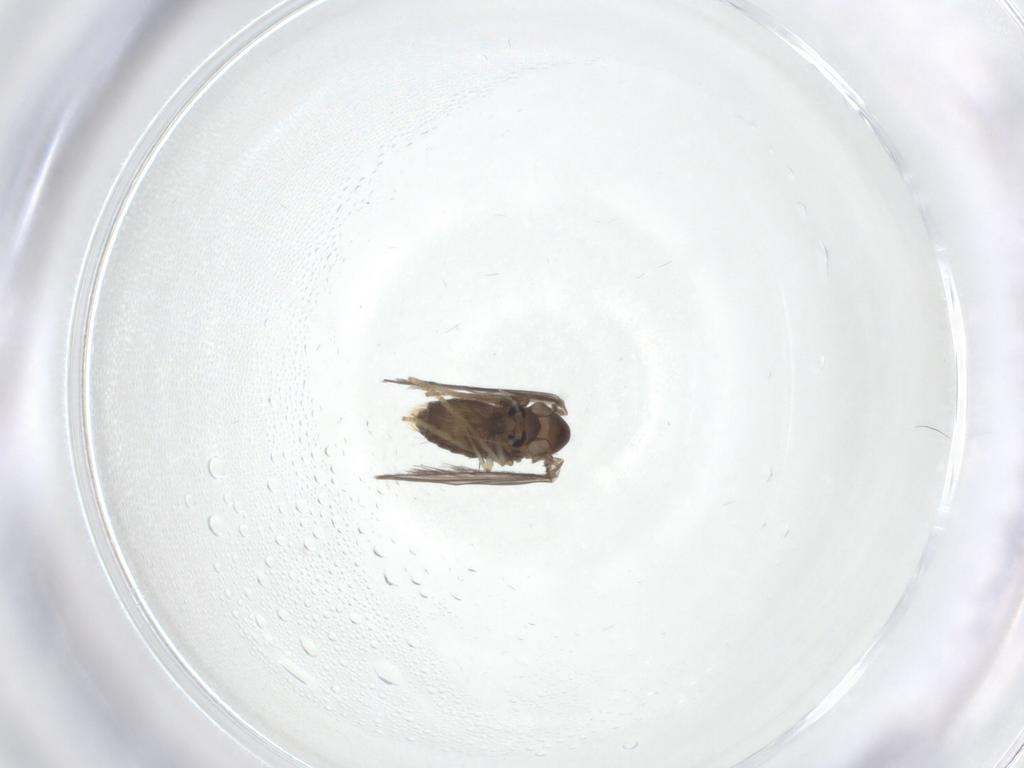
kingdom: Animalia
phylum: Arthropoda
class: Insecta
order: Diptera
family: Psychodidae
